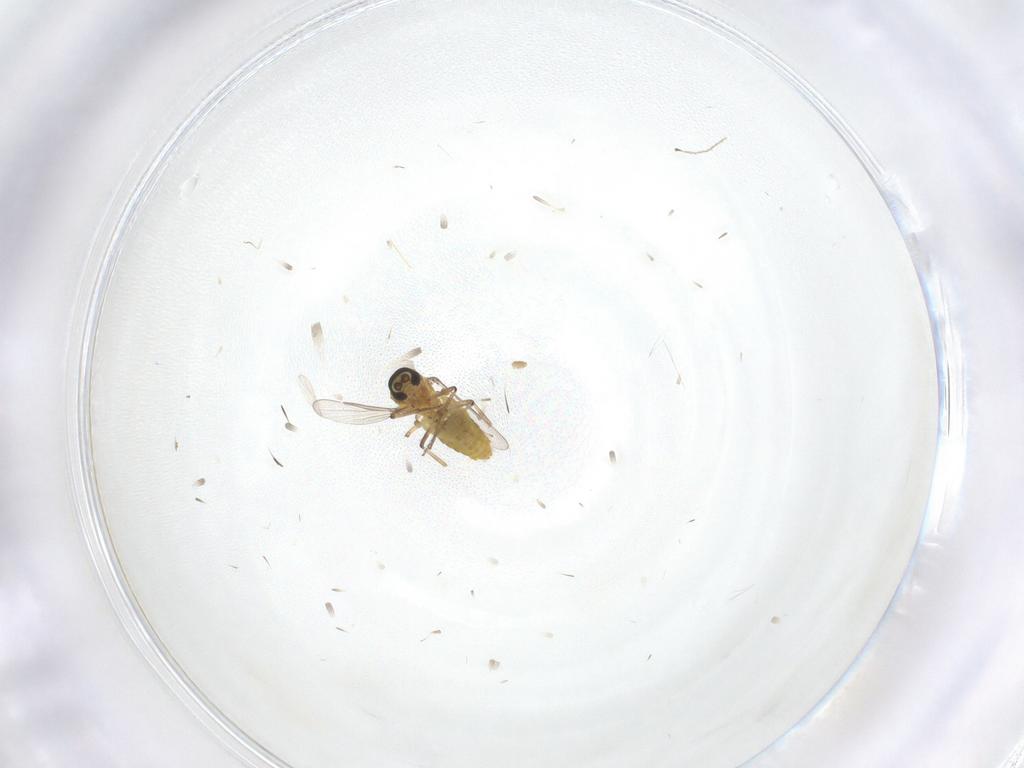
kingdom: Animalia
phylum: Arthropoda
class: Insecta
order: Diptera
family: Ceratopogonidae
